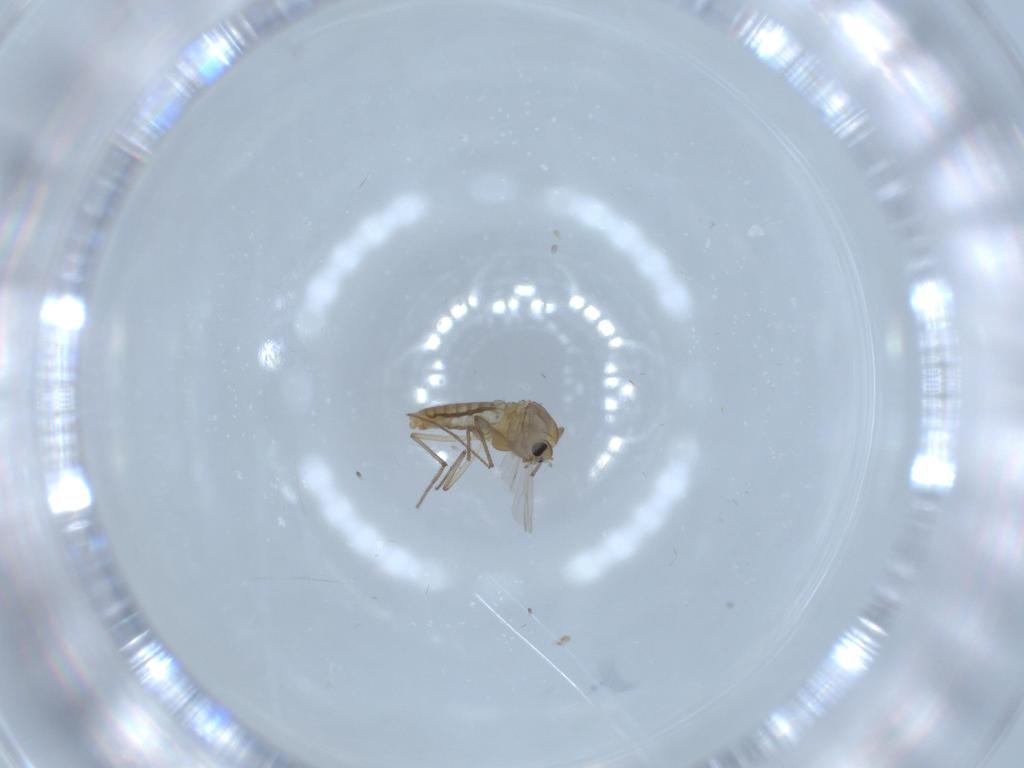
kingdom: Animalia
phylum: Arthropoda
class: Insecta
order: Diptera
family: Chironomidae
